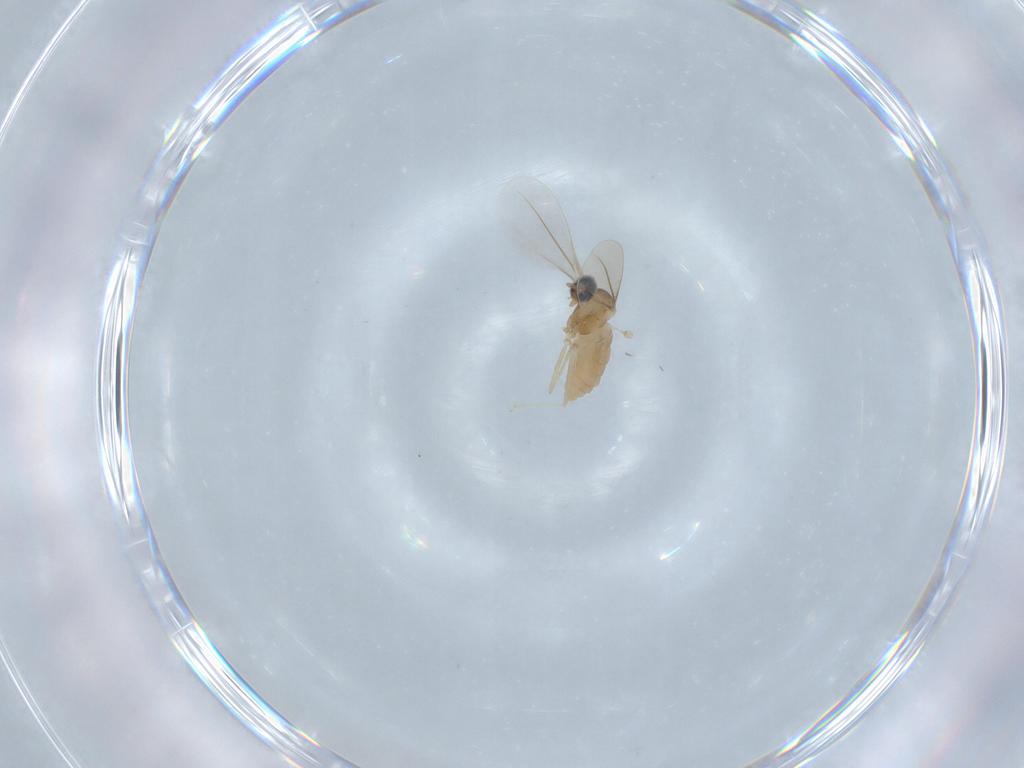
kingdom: Animalia
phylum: Arthropoda
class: Insecta
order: Diptera
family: Cecidomyiidae
